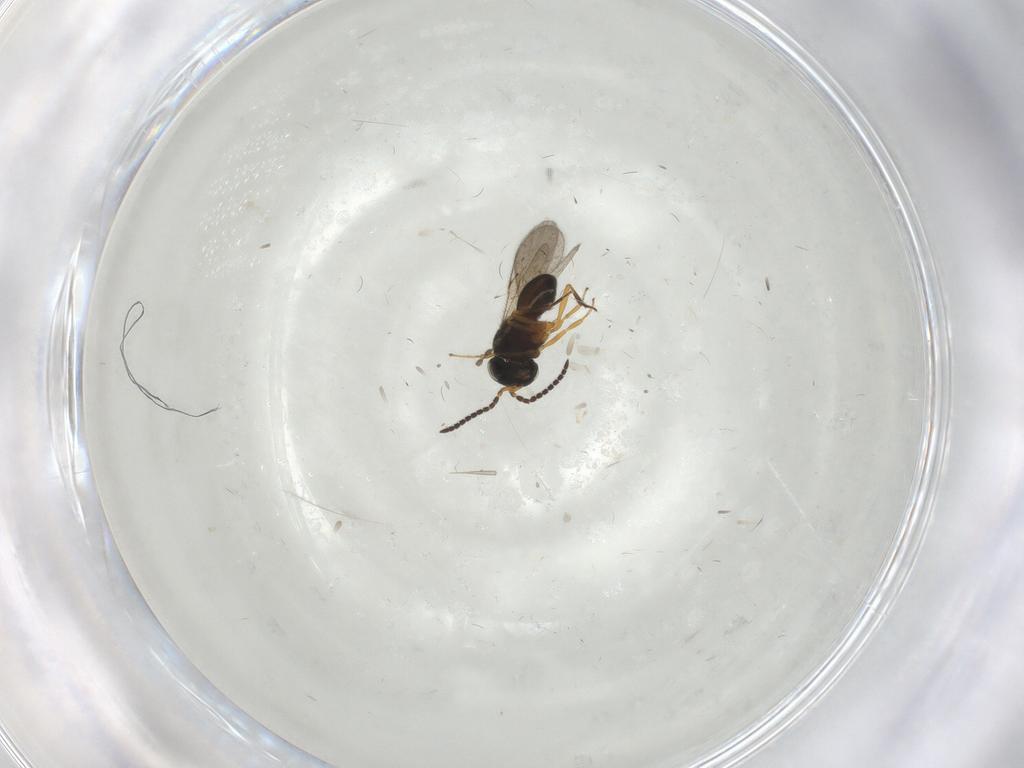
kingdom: Animalia
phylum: Arthropoda
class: Insecta
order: Hymenoptera
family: Scelionidae
